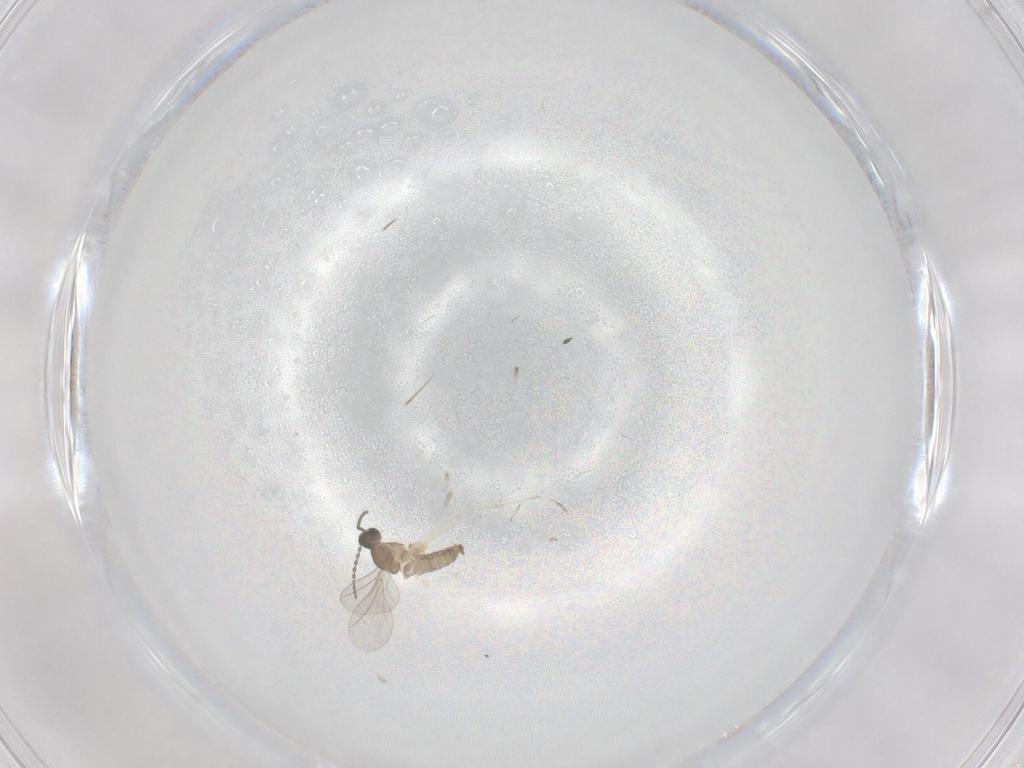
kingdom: Animalia
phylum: Arthropoda
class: Insecta
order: Diptera
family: Cecidomyiidae
